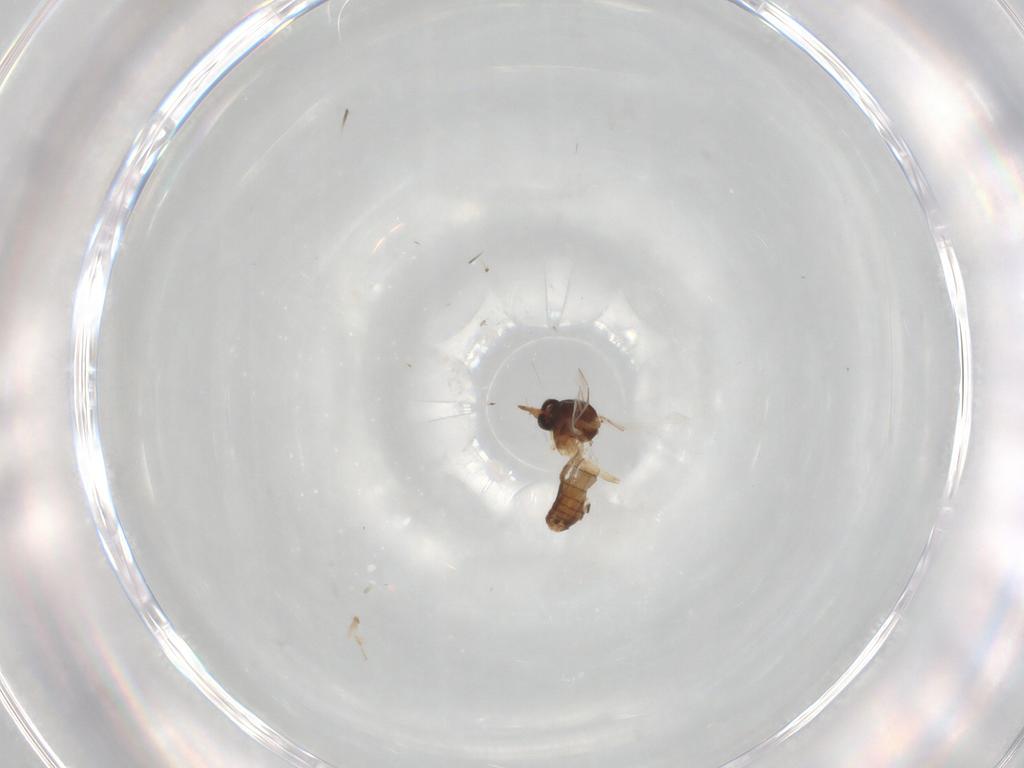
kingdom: Animalia
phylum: Arthropoda
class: Insecta
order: Diptera
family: Ceratopogonidae
